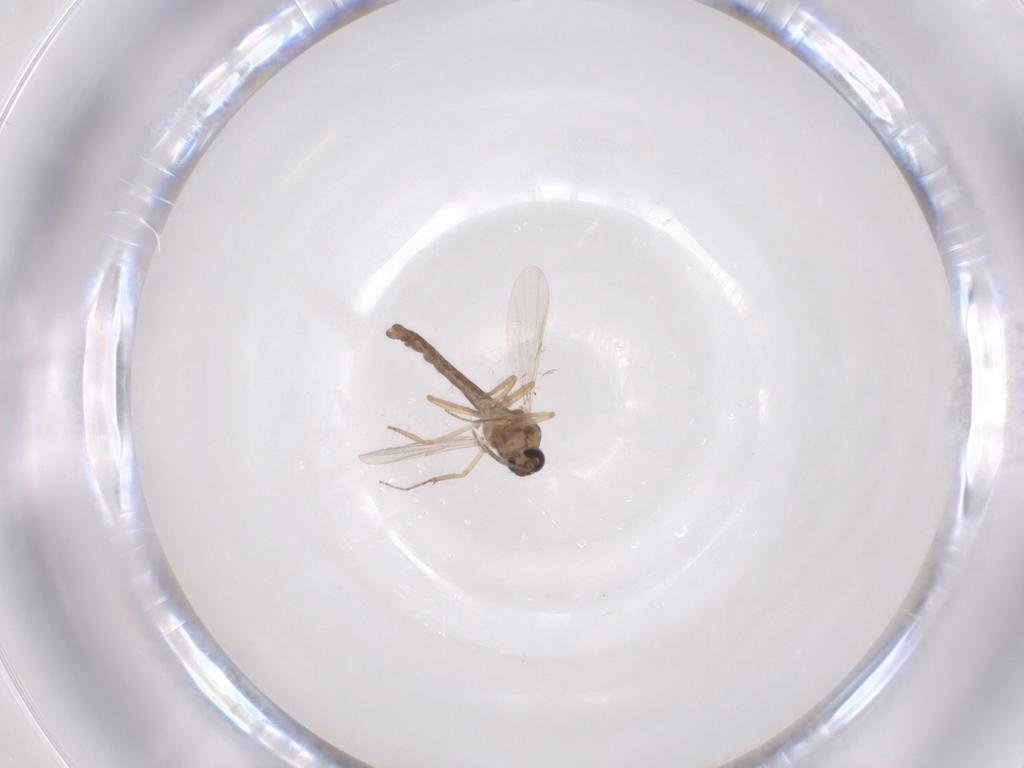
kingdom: Animalia
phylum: Arthropoda
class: Insecta
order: Diptera
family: Ceratopogonidae
